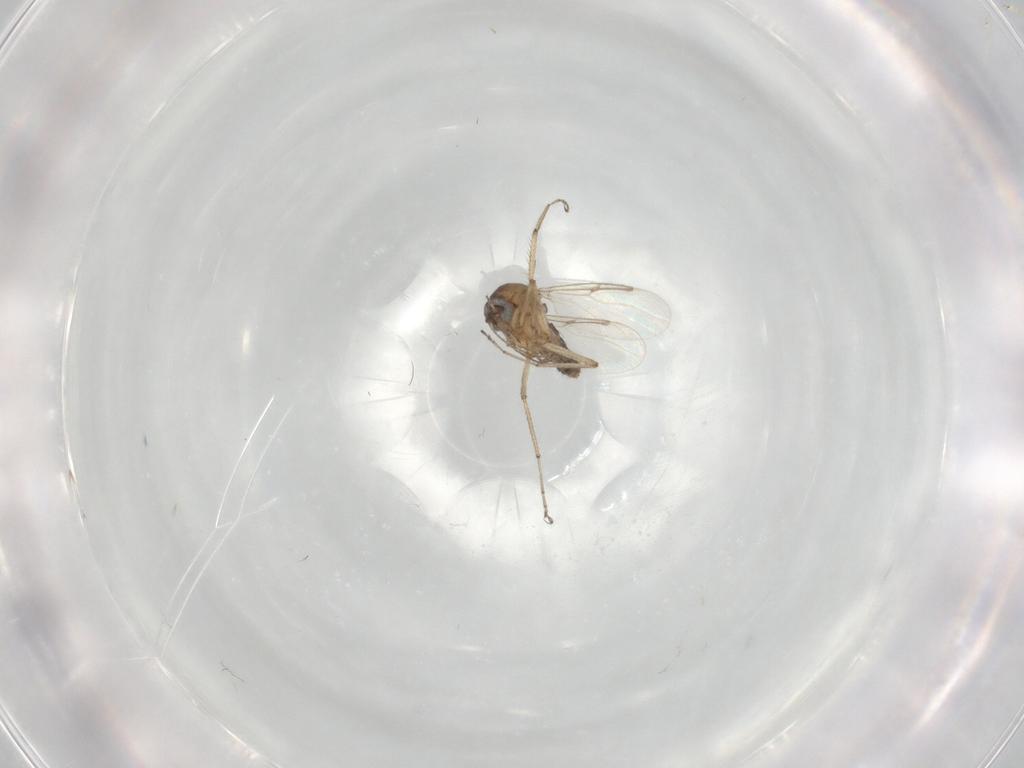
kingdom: Animalia
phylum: Arthropoda
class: Insecta
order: Diptera
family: Ceratopogonidae
